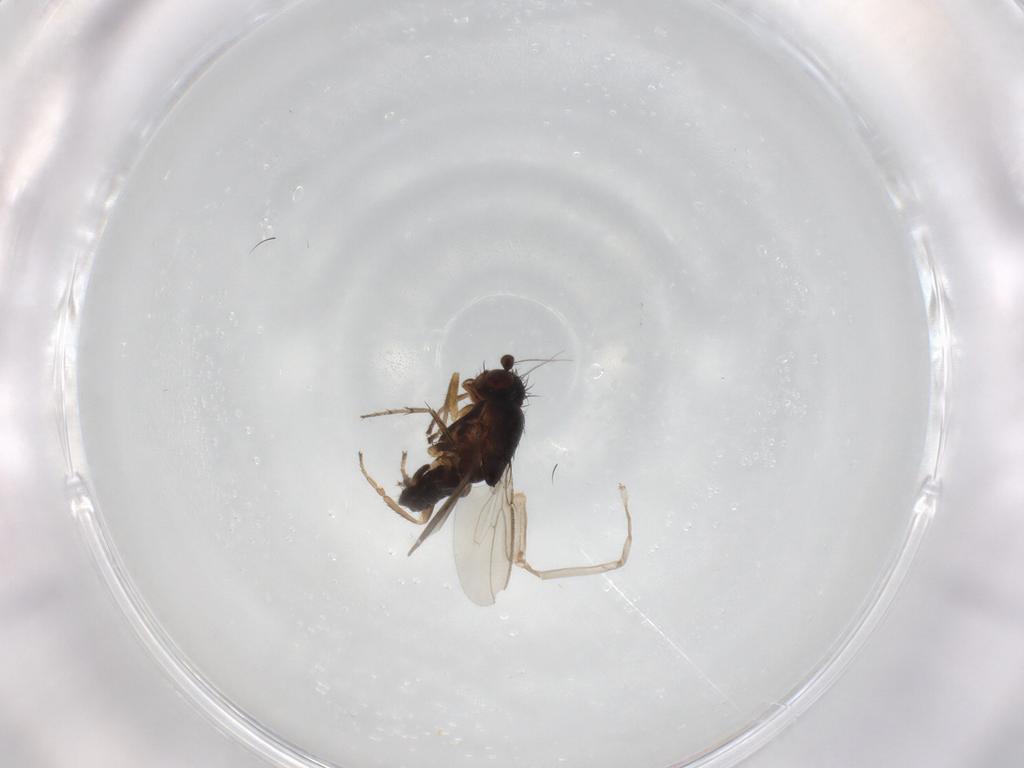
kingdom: Animalia
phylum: Arthropoda
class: Insecta
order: Diptera
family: Sphaeroceridae
